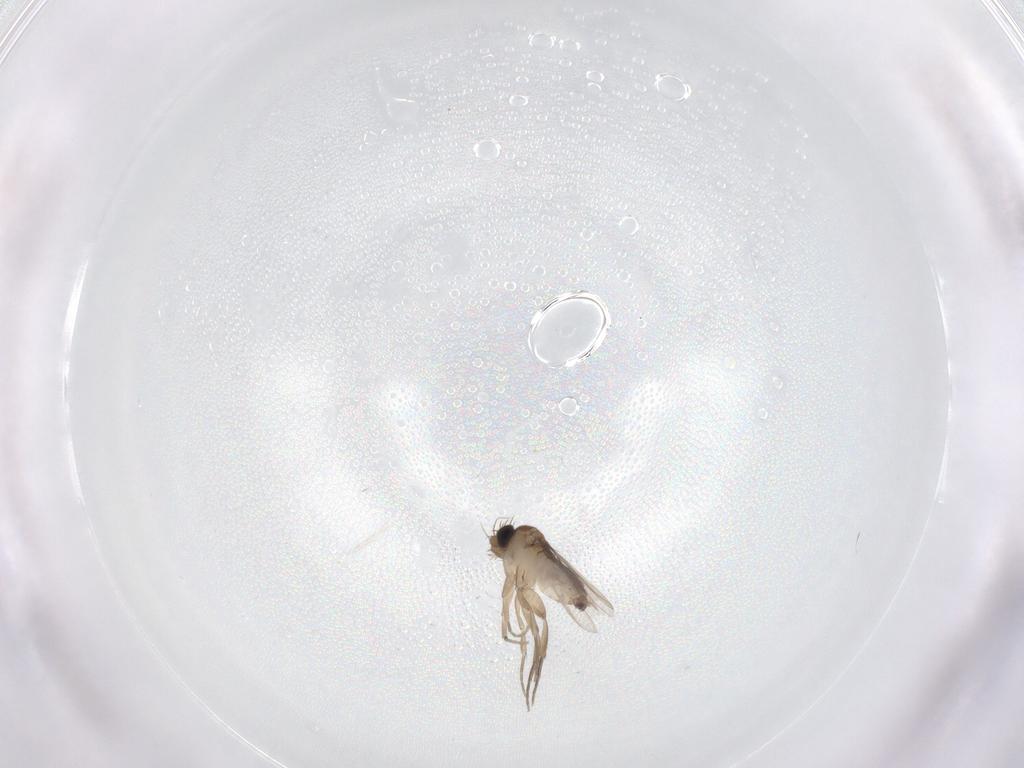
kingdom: Animalia
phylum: Arthropoda
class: Insecta
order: Diptera
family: Phoridae
